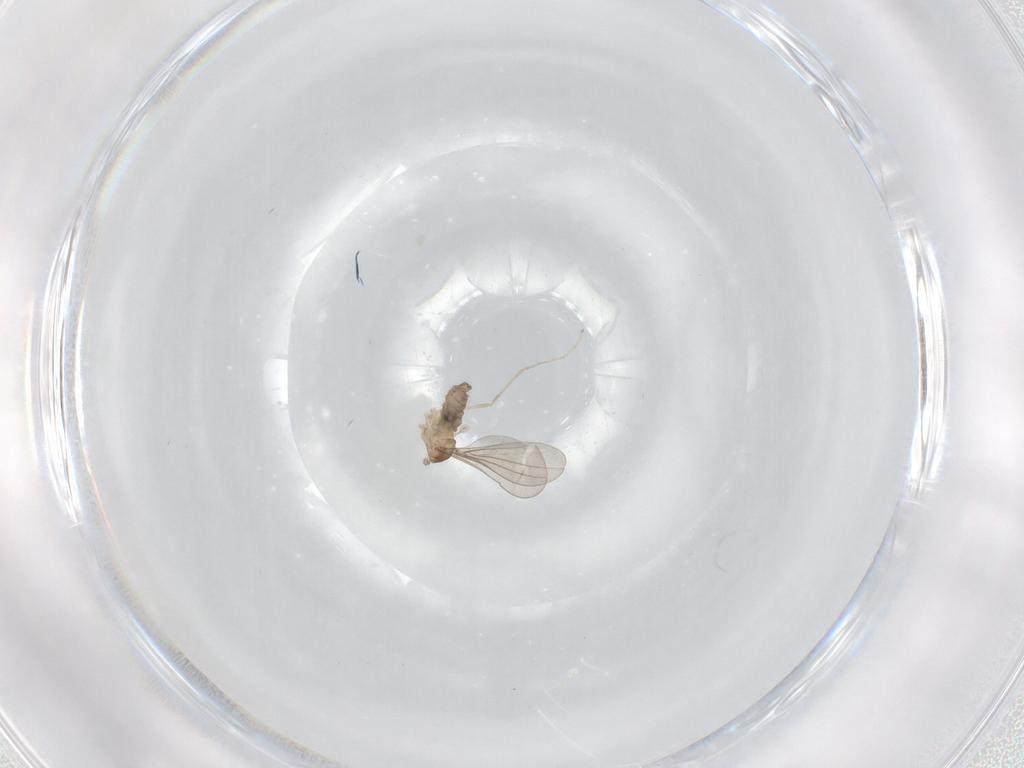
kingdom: Animalia
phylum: Arthropoda
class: Insecta
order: Diptera
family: Cecidomyiidae
